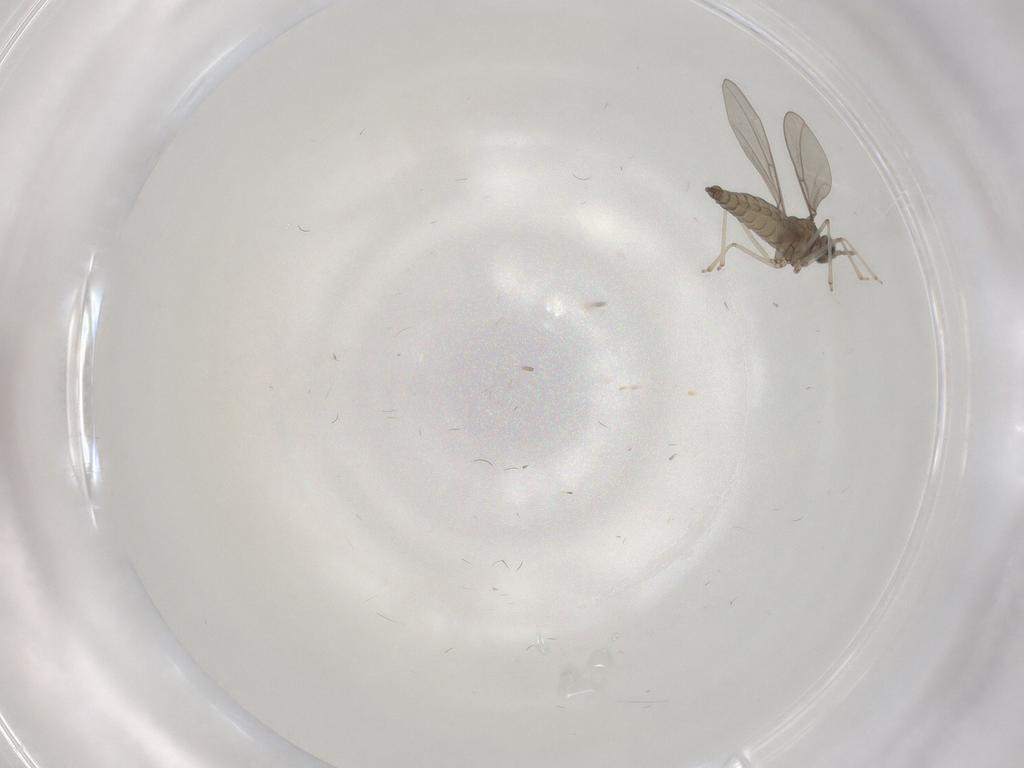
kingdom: Animalia
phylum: Arthropoda
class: Insecta
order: Diptera
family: Cecidomyiidae
